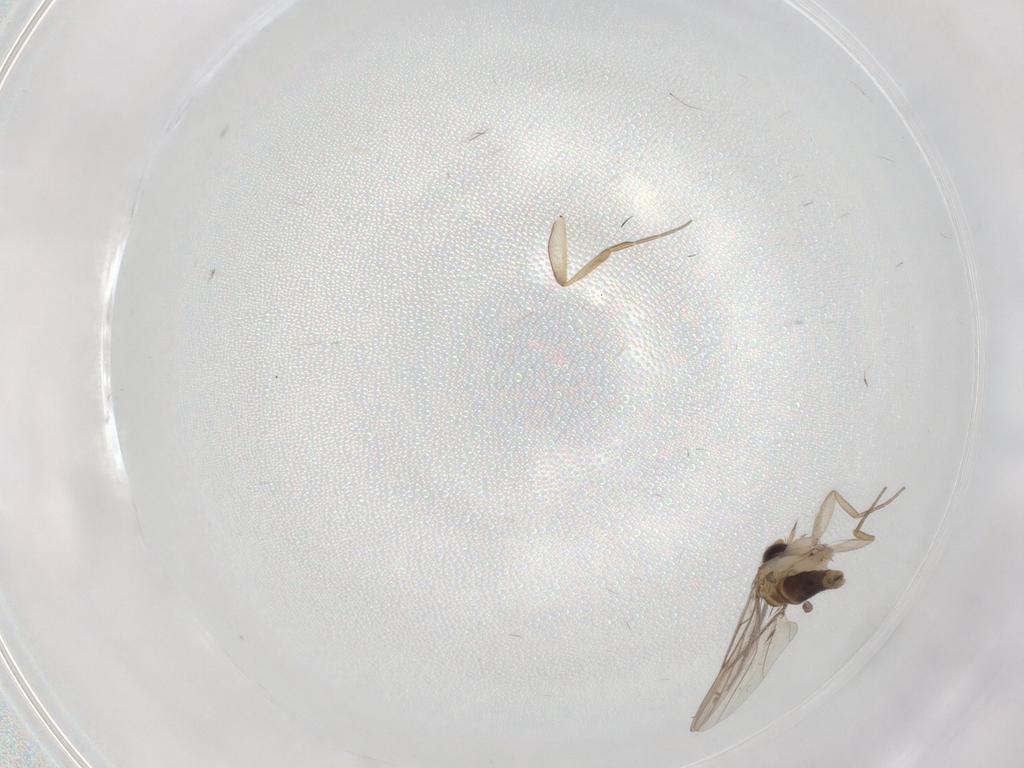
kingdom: Animalia
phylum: Arthropoda
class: Insecta
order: Diptera
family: Phoridae
